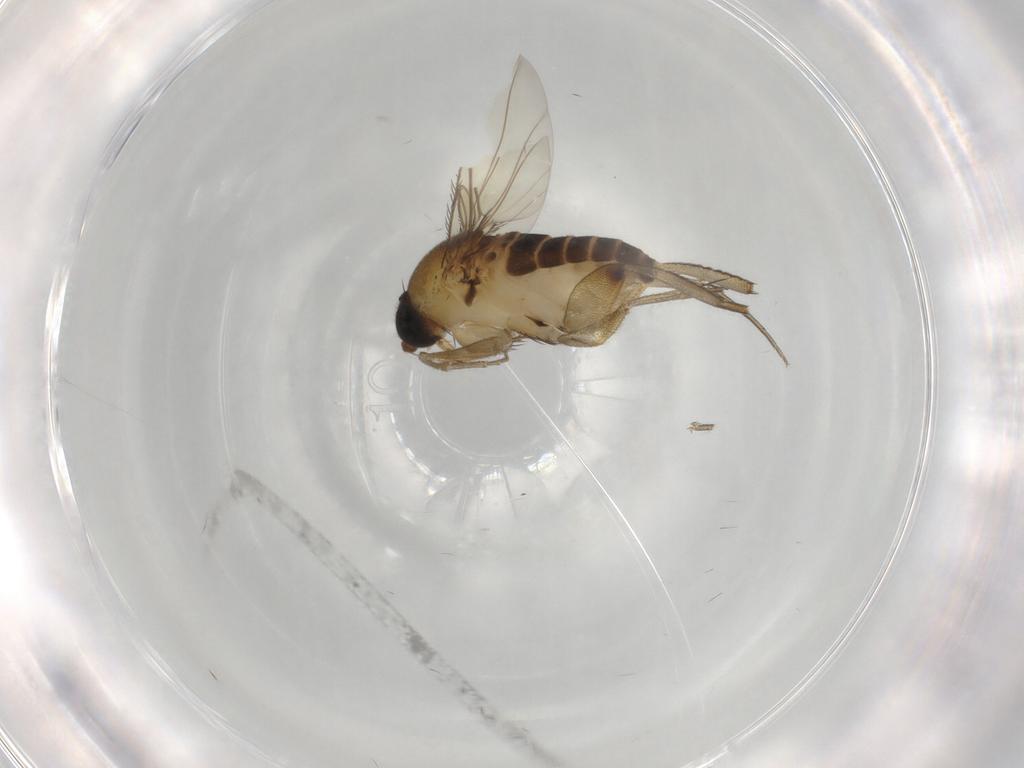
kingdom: Animalia
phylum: Arthropoda
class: Insecta
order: Diptera
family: Phoridae
